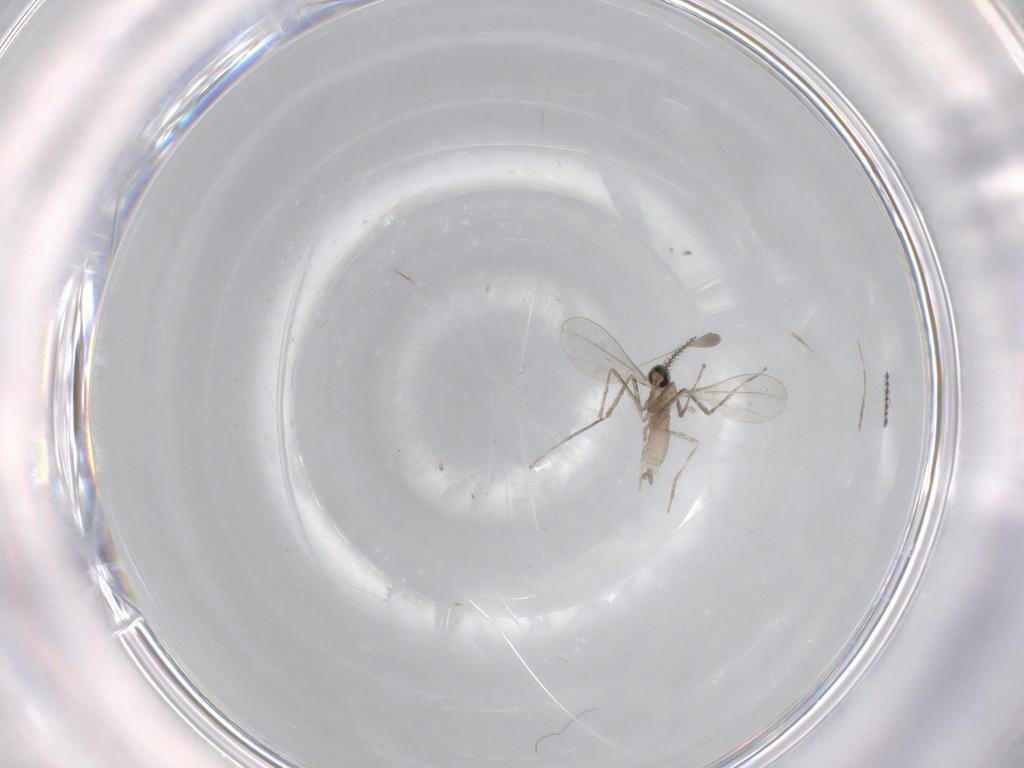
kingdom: Animalia
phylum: Arthropoda
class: Insecta
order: Diptera
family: Cecidomyiidae
